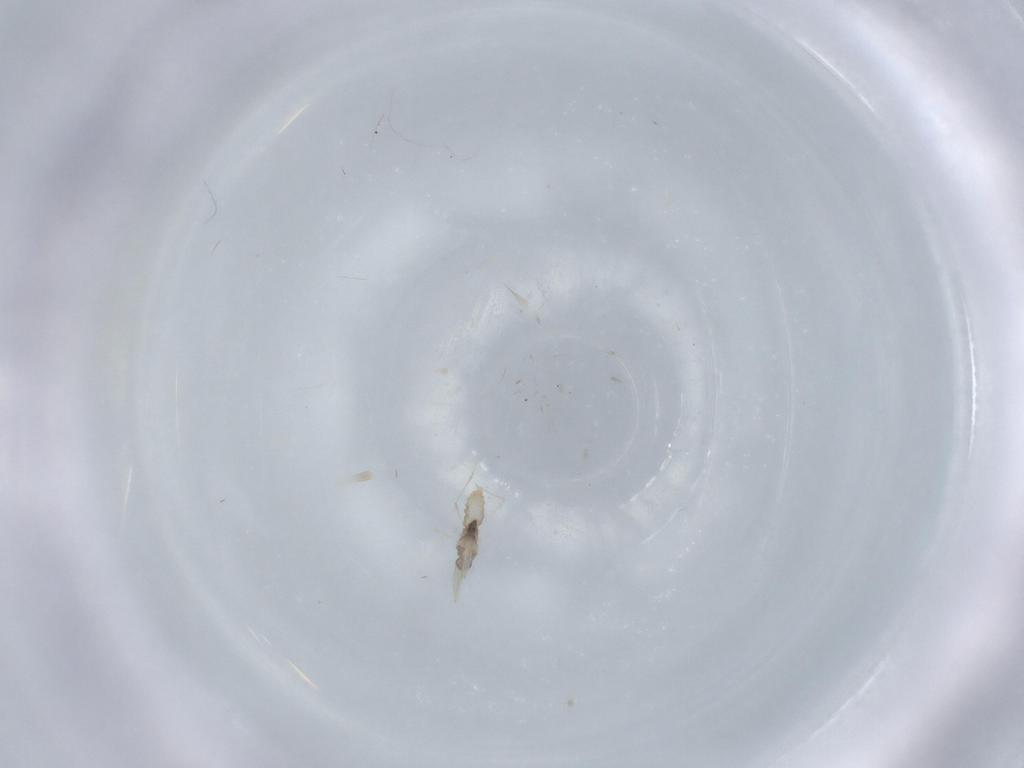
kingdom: Animalia
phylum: Arthropoda
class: Insecta
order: Diptera
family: Cecidomyiidae
